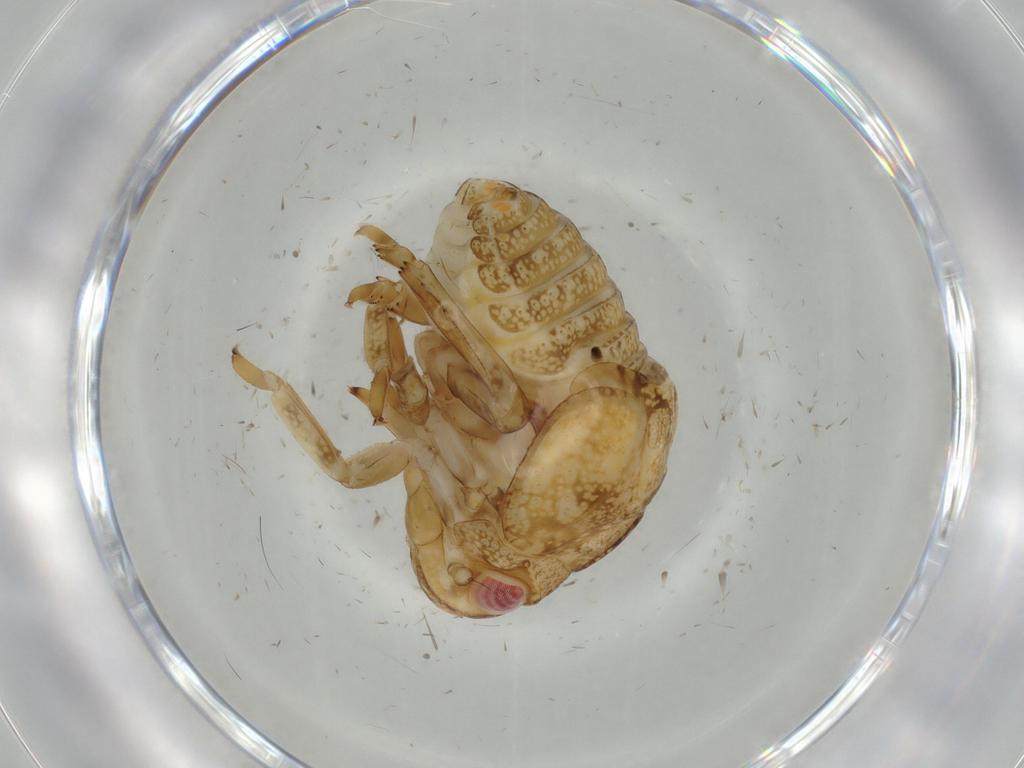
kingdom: Animalia
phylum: Arthropoda
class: Insecta
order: Hemiptera
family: Acanaloniidae
